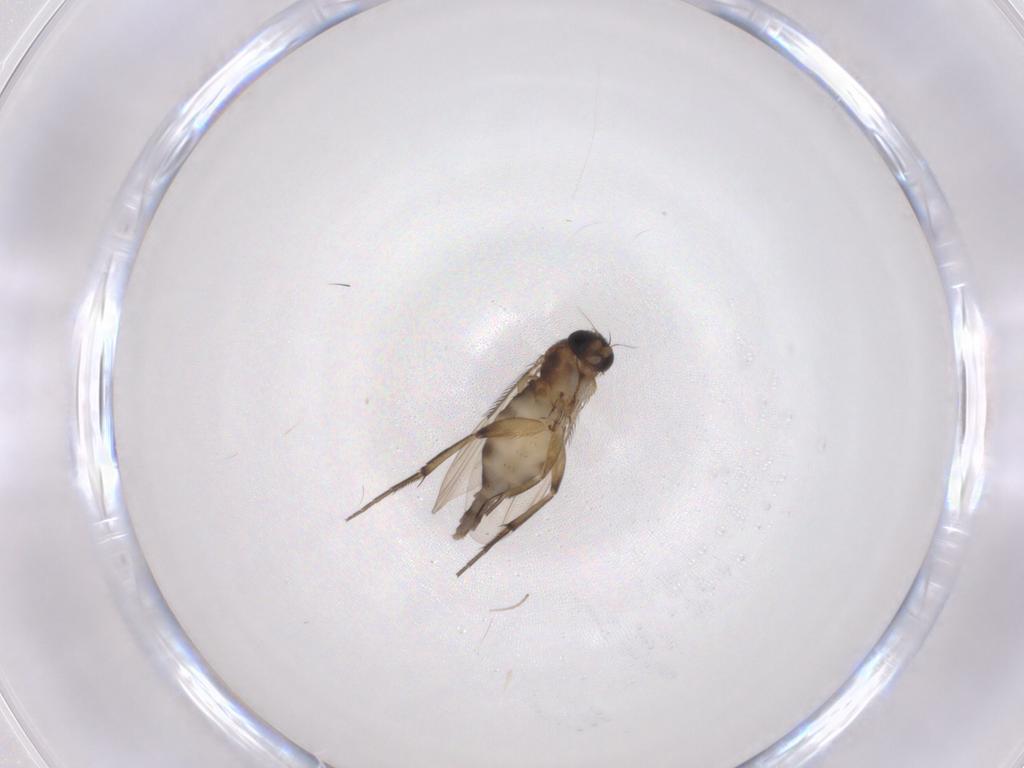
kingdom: Animalia
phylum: Arthropoda
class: Insecta
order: Diptera
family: Phoridae
